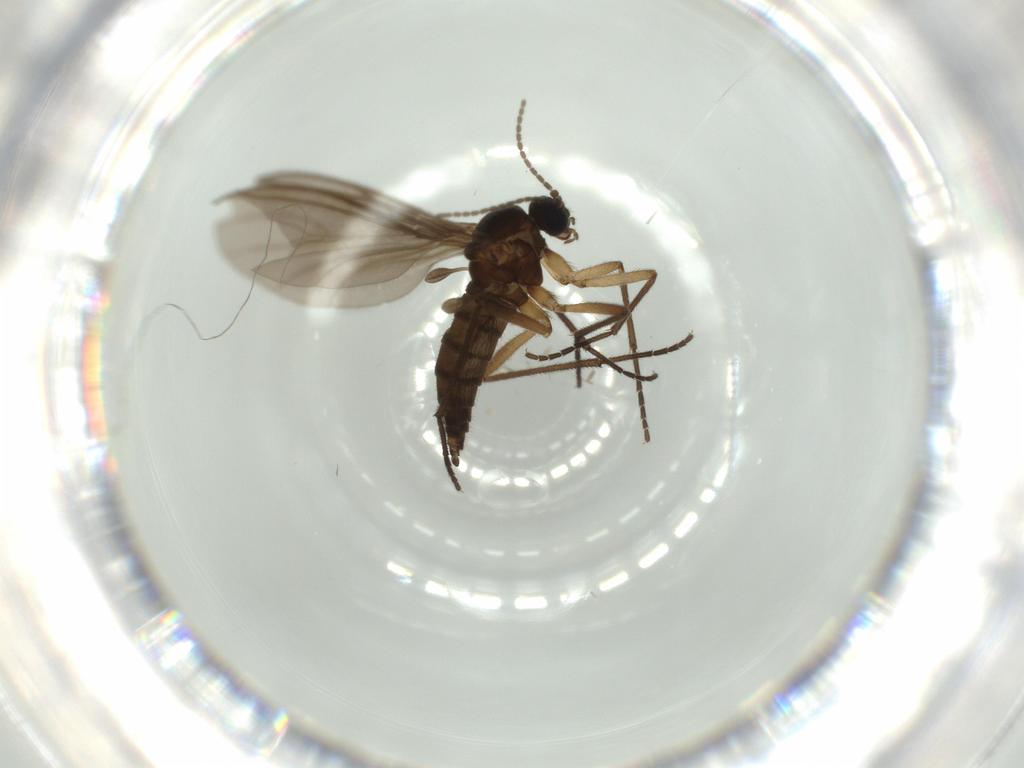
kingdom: Animalia
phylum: Arthropoda
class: Insecta
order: Diptera
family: Sciaridae
